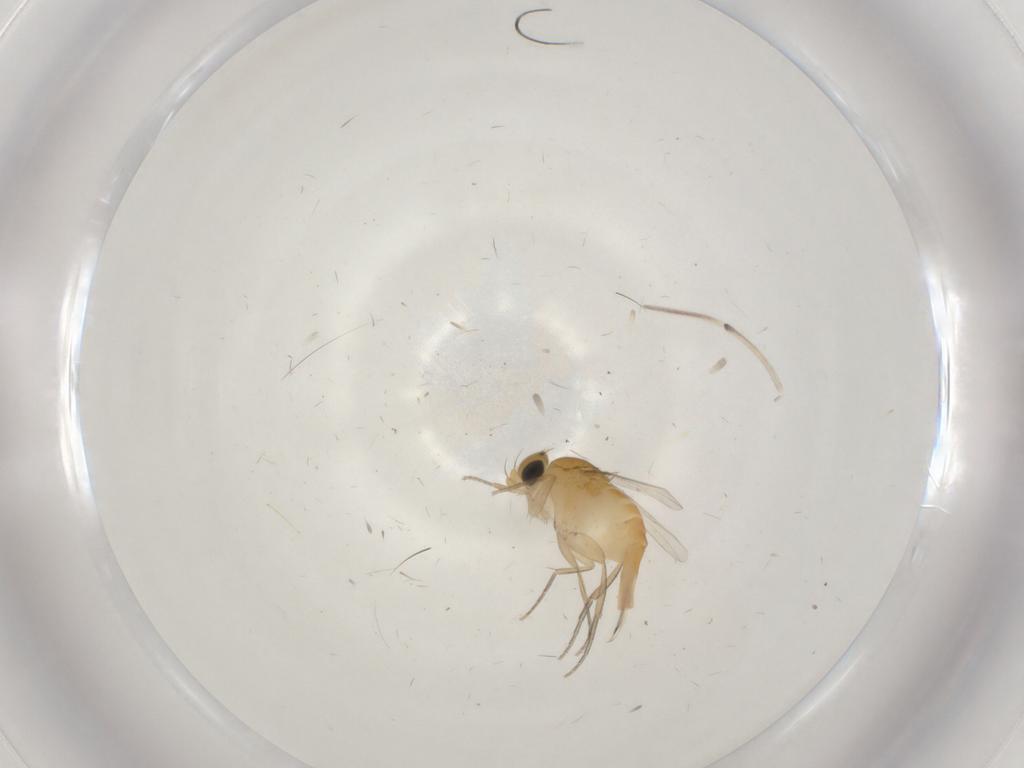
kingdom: Animalia
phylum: Arthropoda
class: Insecta
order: Diptera
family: Phoridae
